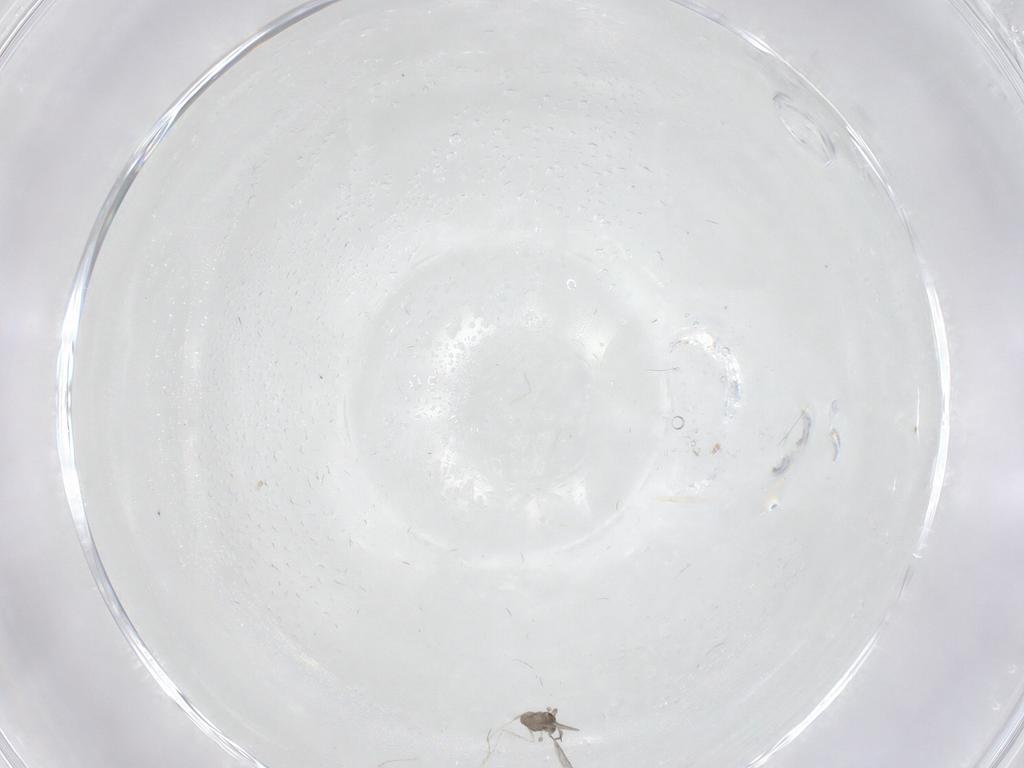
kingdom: Animalia
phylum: Arthropoda
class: Insecta
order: Diptera
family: Cecidomyiidae
